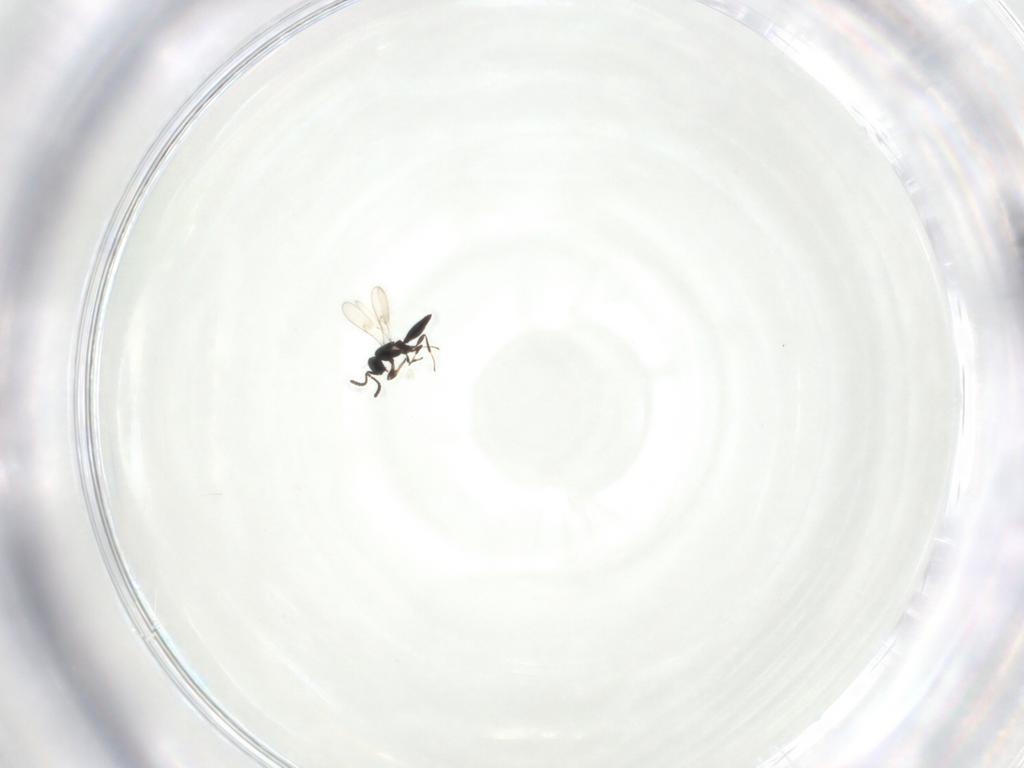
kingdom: Animalia
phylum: Arthropoda
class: Insecta
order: Hymenoptera
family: Scelionidae
